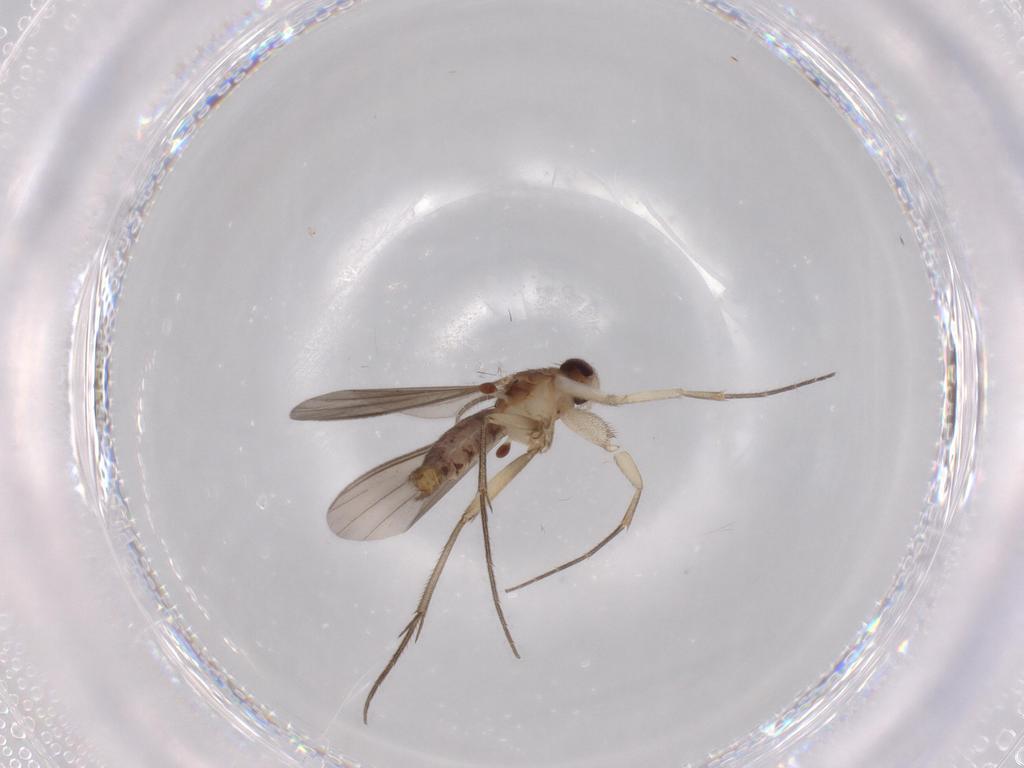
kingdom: Animalia
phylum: Arthropoda
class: Insecta
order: Diptera
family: Cecidomyiidae
